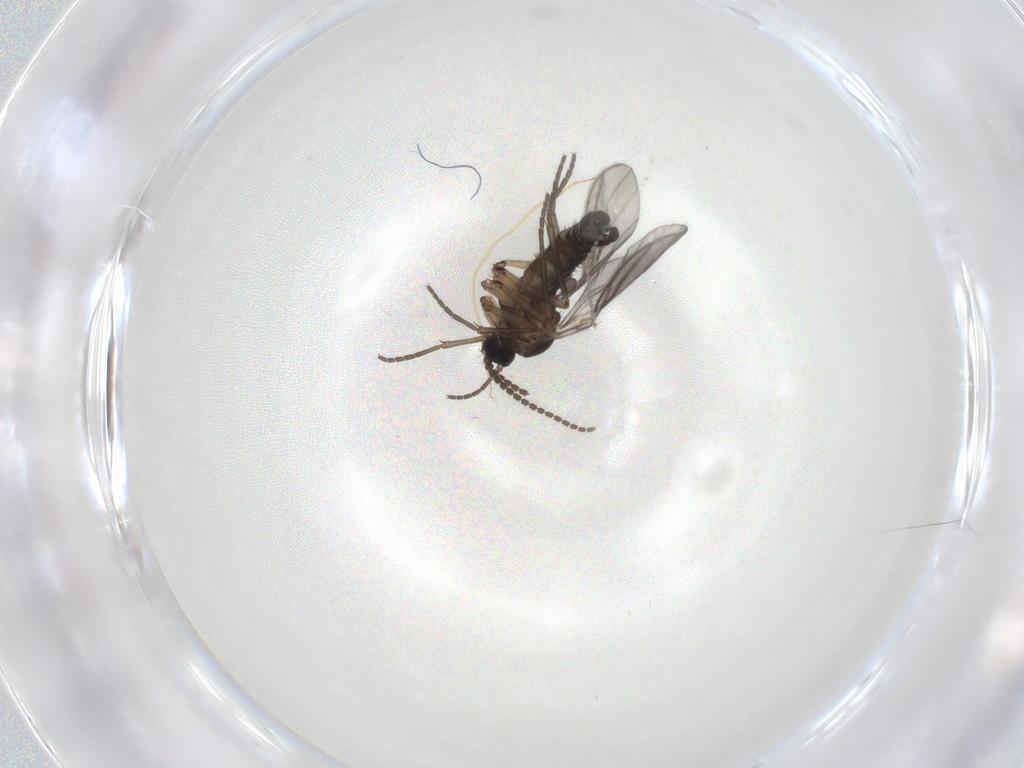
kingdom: Animalia
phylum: Arthropoda
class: Insecta
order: Diptera
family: Sciaridae
